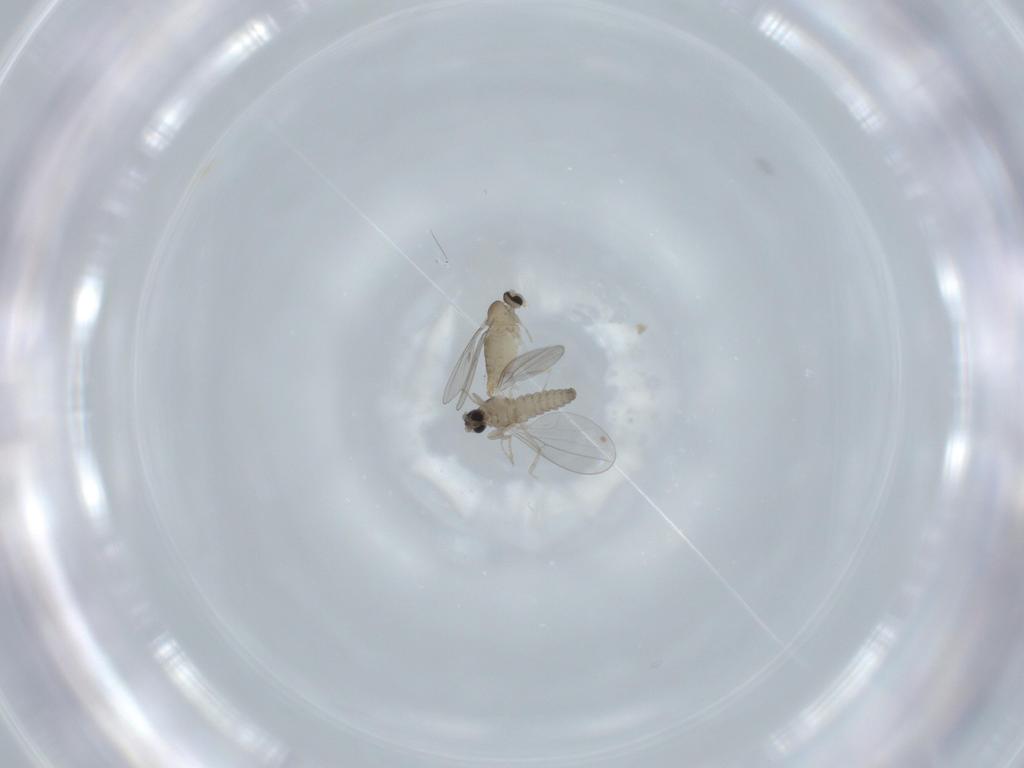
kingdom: Animalia
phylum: Arthropoda
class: Insecta
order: Diptera
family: Cecidomyiidae
